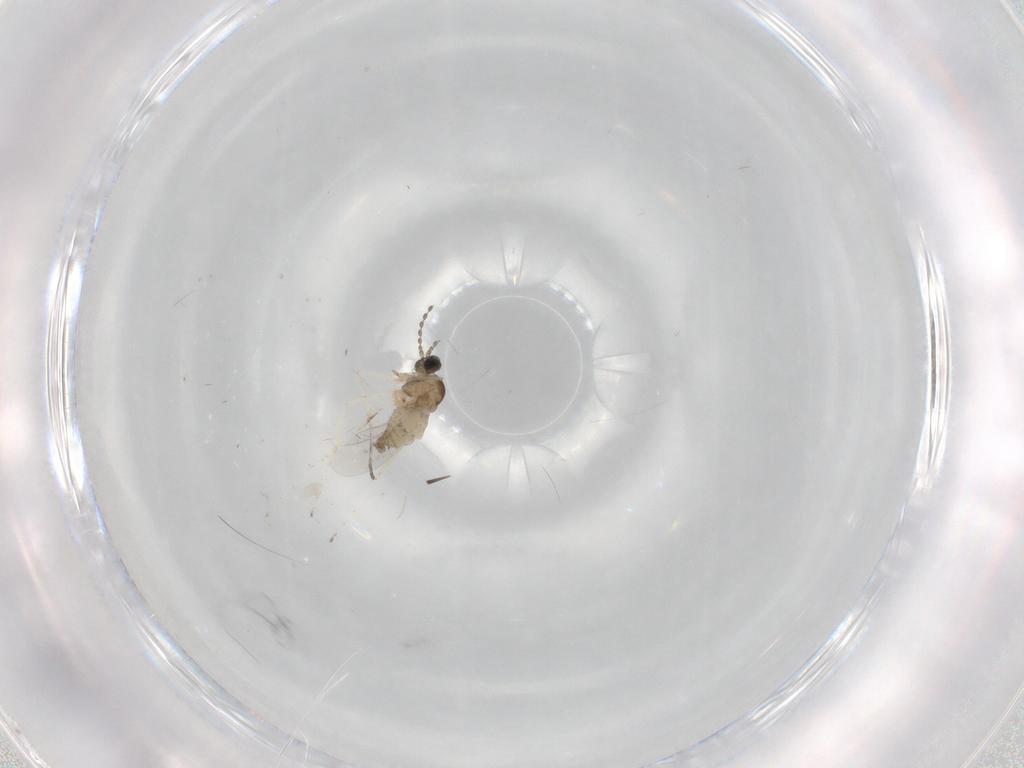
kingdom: Animalia
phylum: Arthropoda
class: Insecta
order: Diptera
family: Cecidomyiidae
